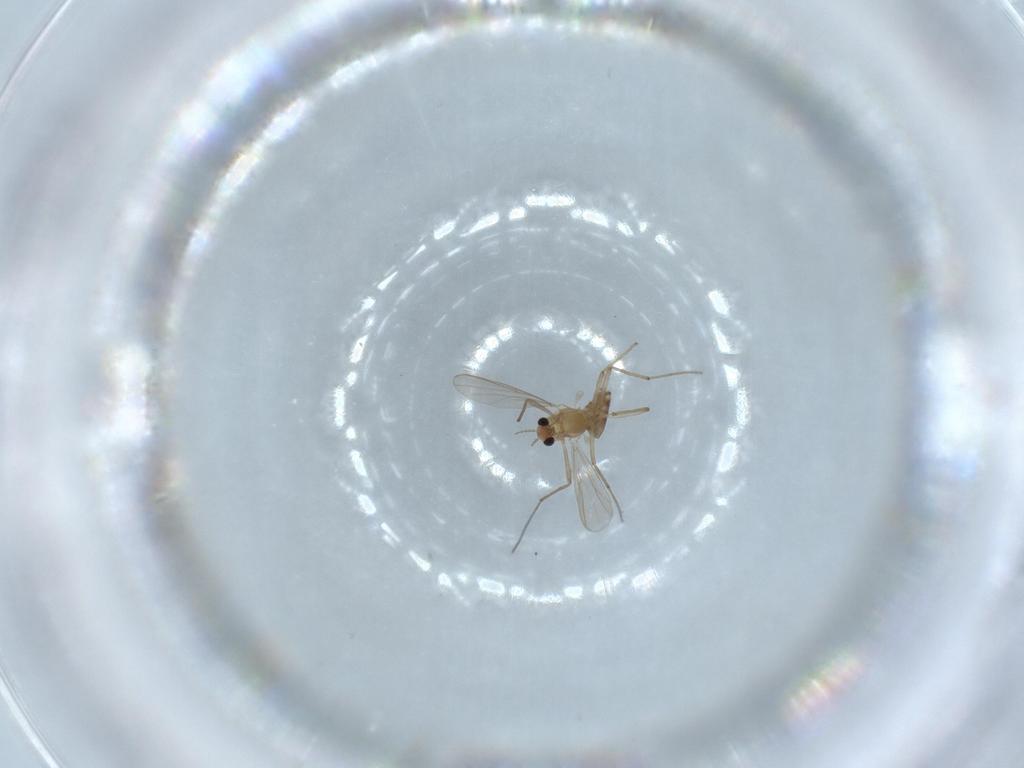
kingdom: Animalia
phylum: Arthropoda
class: Insecta
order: Diptera
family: Chironomidae
